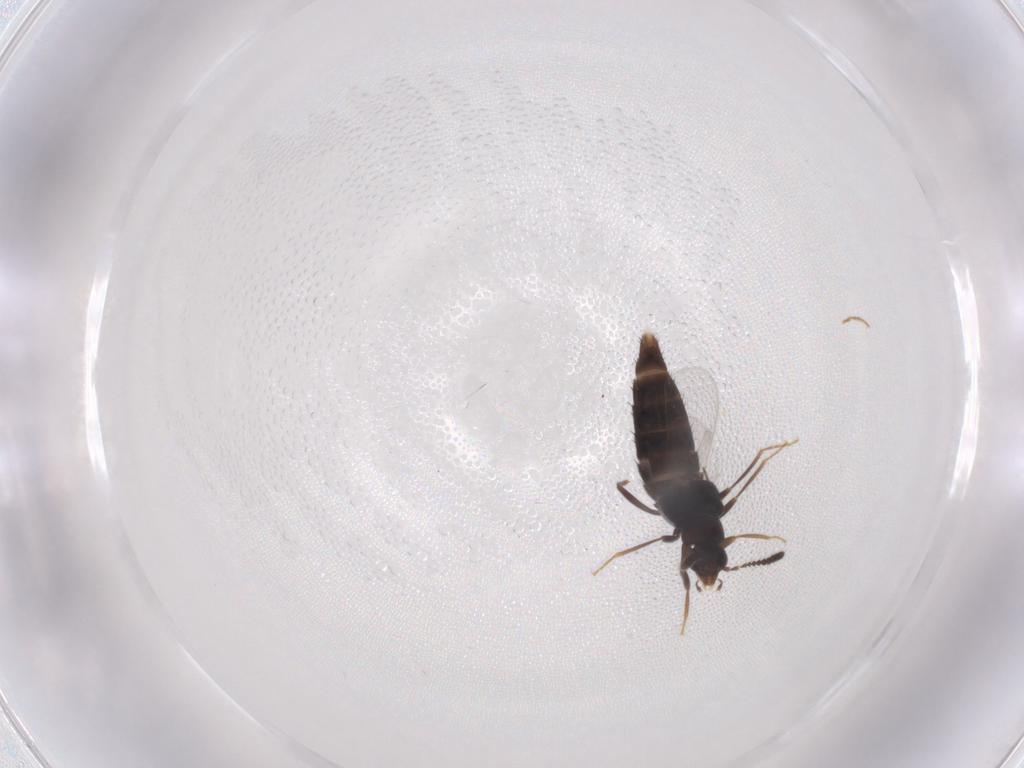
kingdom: Animalia
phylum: Arthropoda
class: Insecta
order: Coleoptera
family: Staphylinidae
